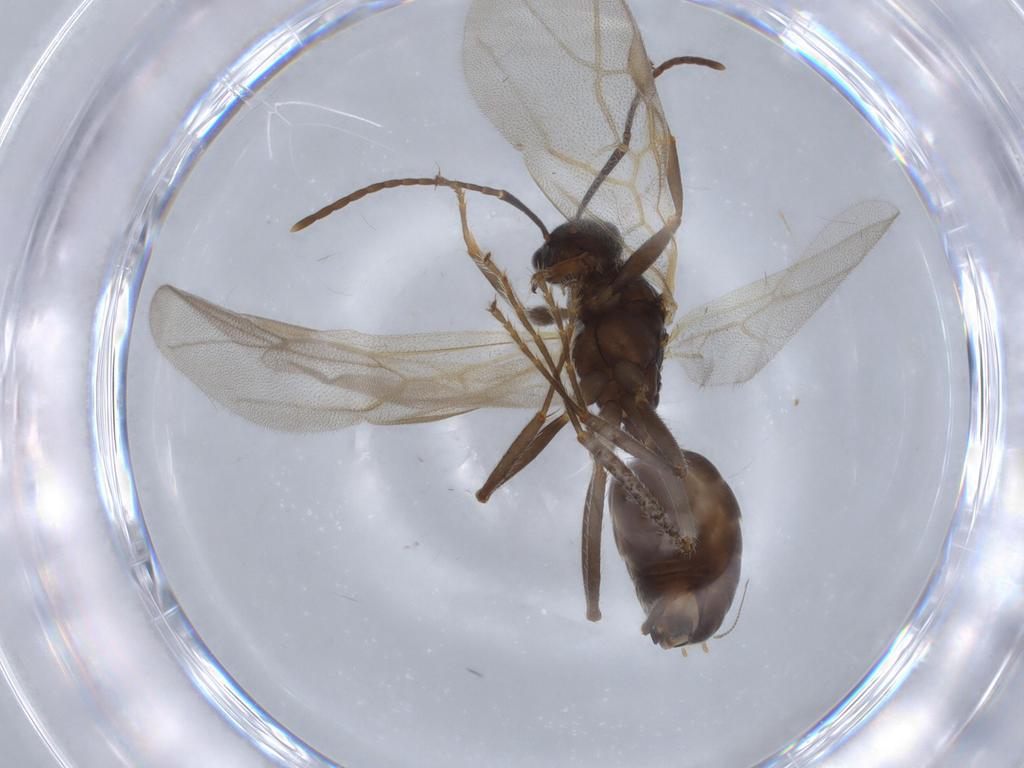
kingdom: Animalia
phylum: Arthropoda
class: Insecta
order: Hymenoptera
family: Formicidae
